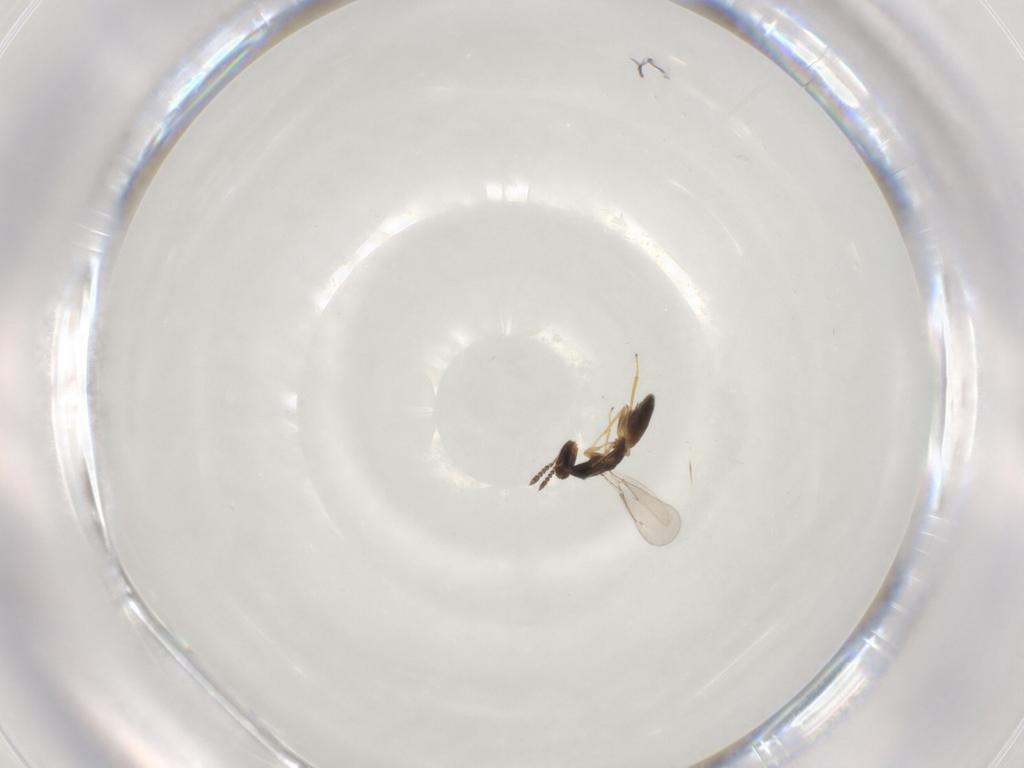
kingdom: Animalia
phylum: Arthropoda
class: Insecta
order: Hymenoptera
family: Eulophidae
